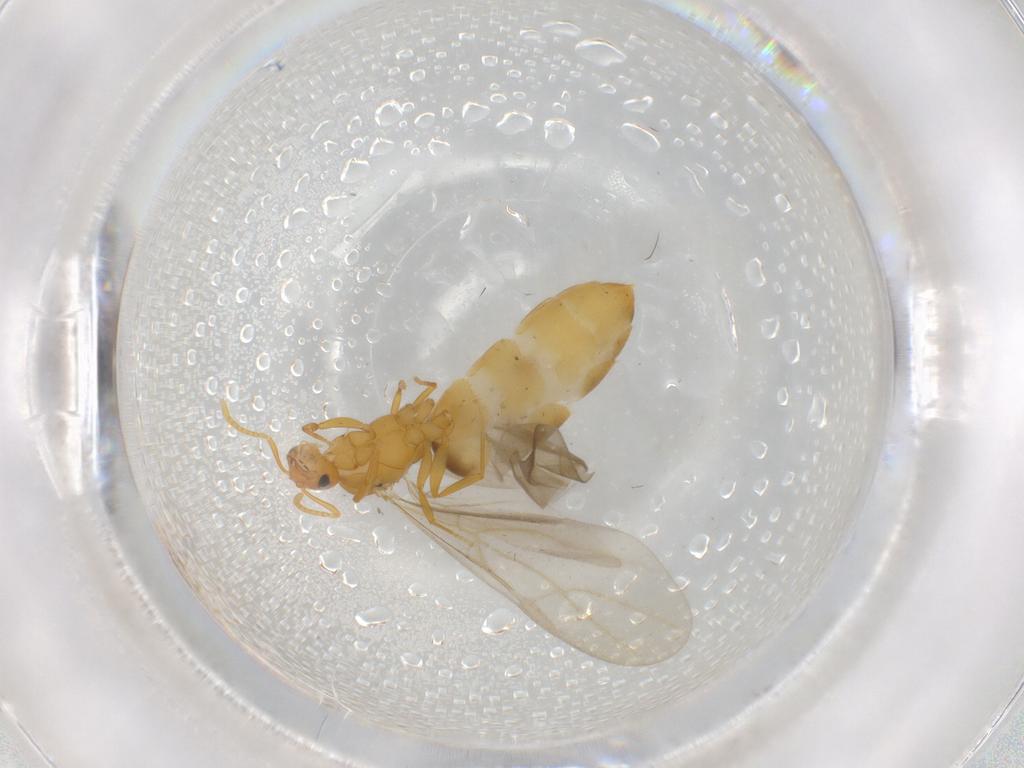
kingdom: Animalia
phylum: Arthropoda
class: Insecta
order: Hymenoptera
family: Formicidae
